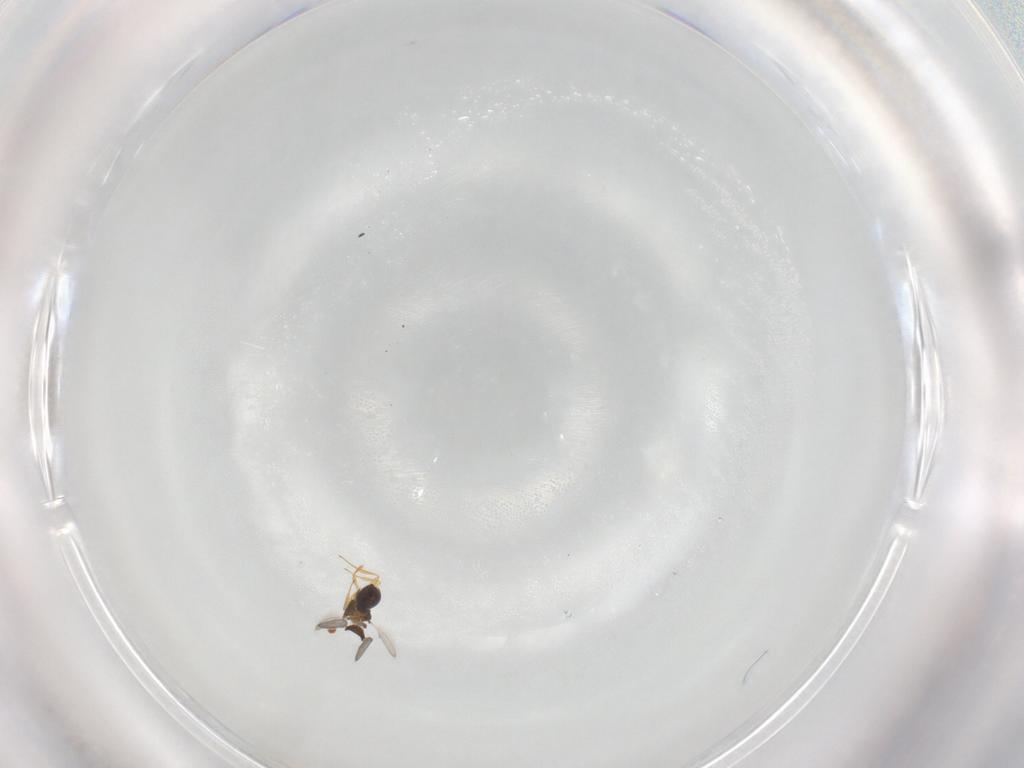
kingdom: Animalia
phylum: Arthropoda
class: Insecta
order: Hymenoptera
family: Scelionidae
